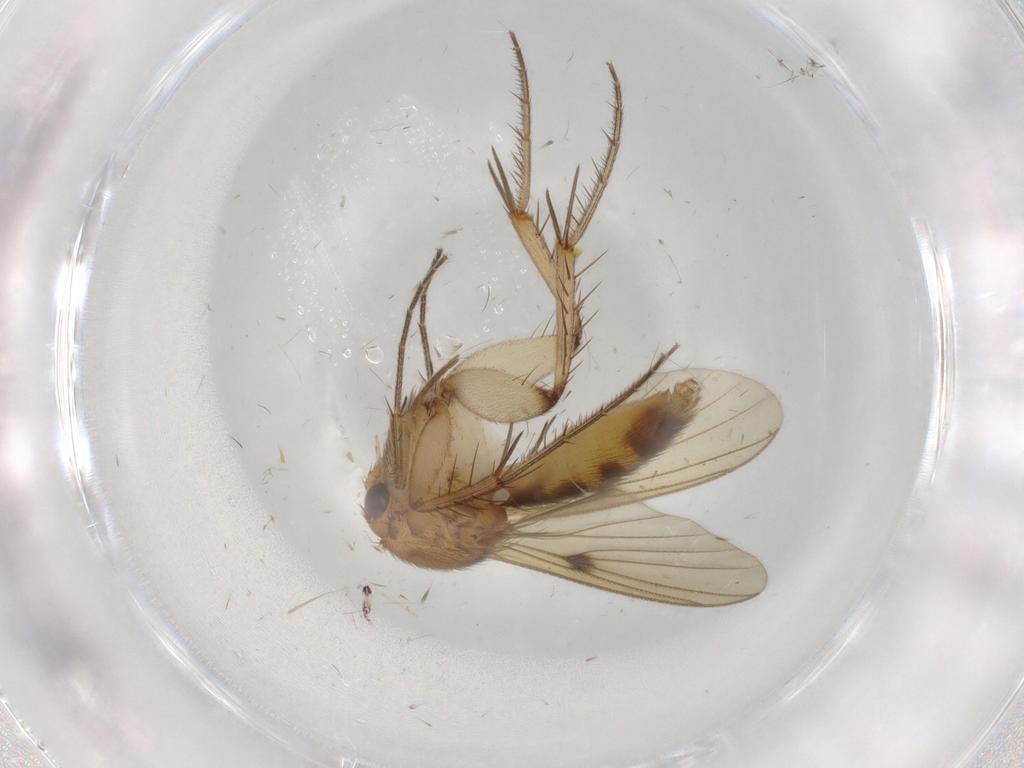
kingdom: Animalia
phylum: Arthropoda
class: Insecta
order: Diptera
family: Mycetophilidae
